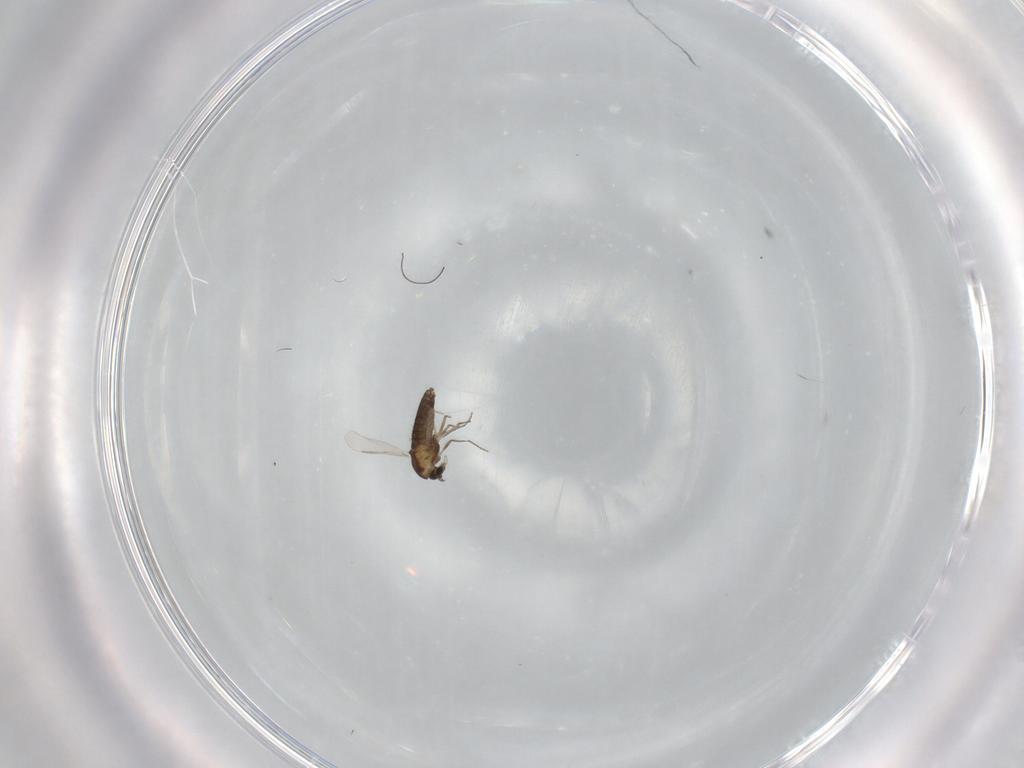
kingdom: Animalia
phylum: Arthropoda
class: Insecta
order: Diptera
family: Chironomidae
